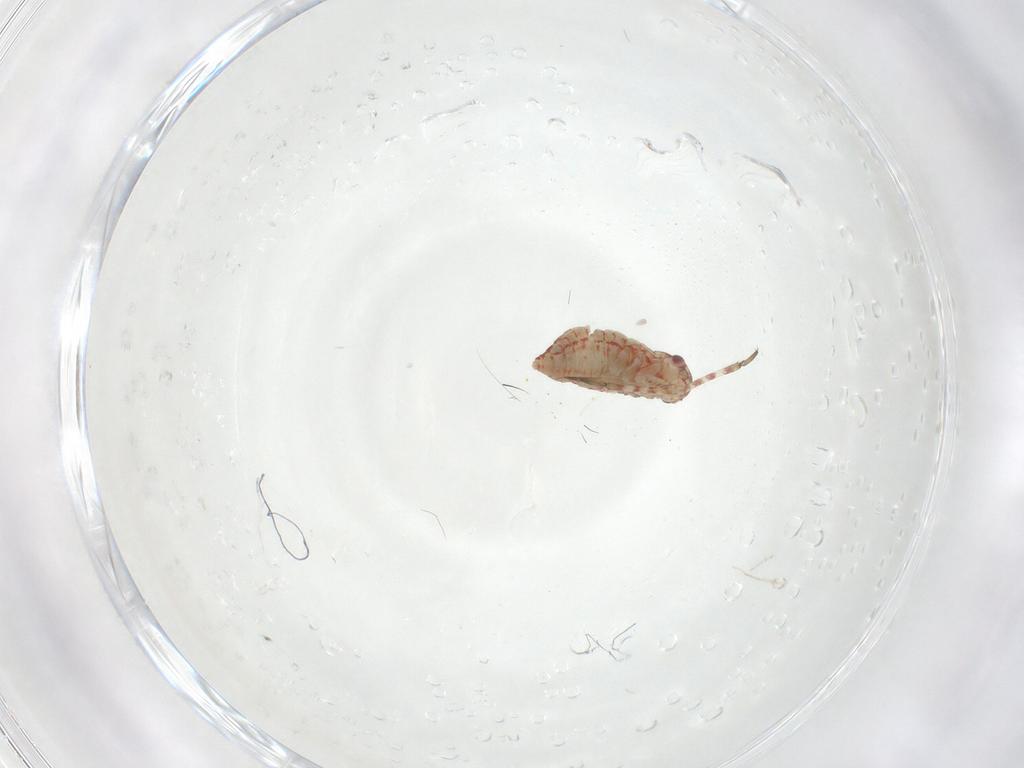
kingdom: Animalia
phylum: Arthropoda
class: Insecta
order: Hemiptera
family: Miridae
